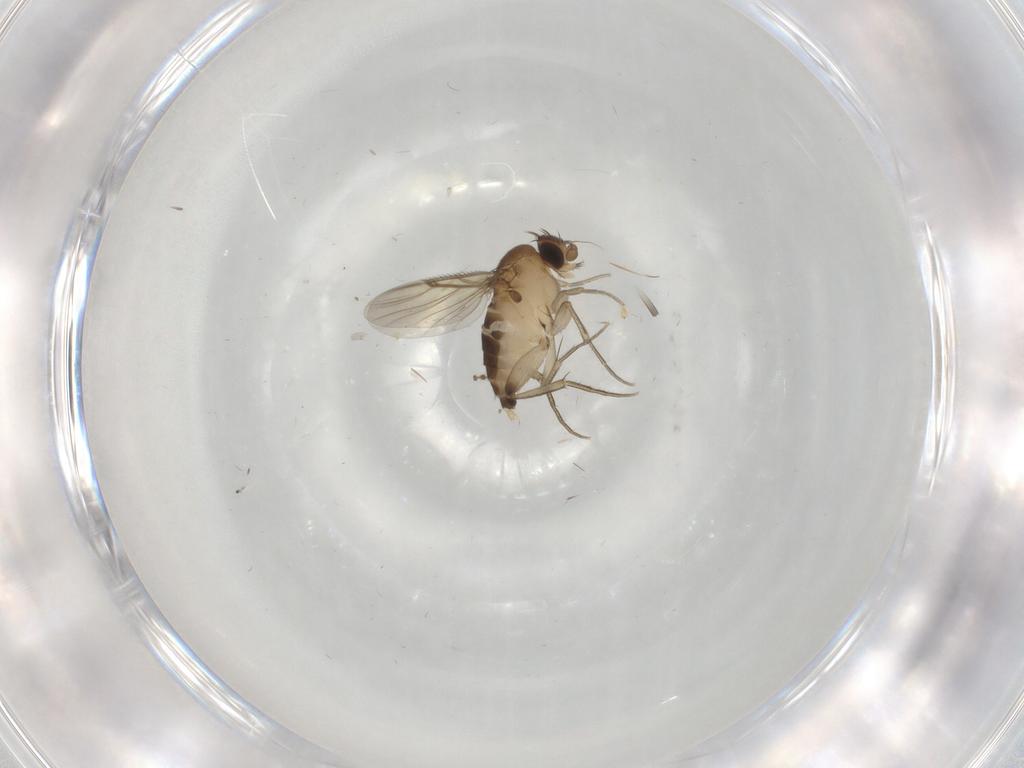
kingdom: Animalia
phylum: Arthropoda
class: Insecta
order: Diptera
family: Cecidomyiidae
